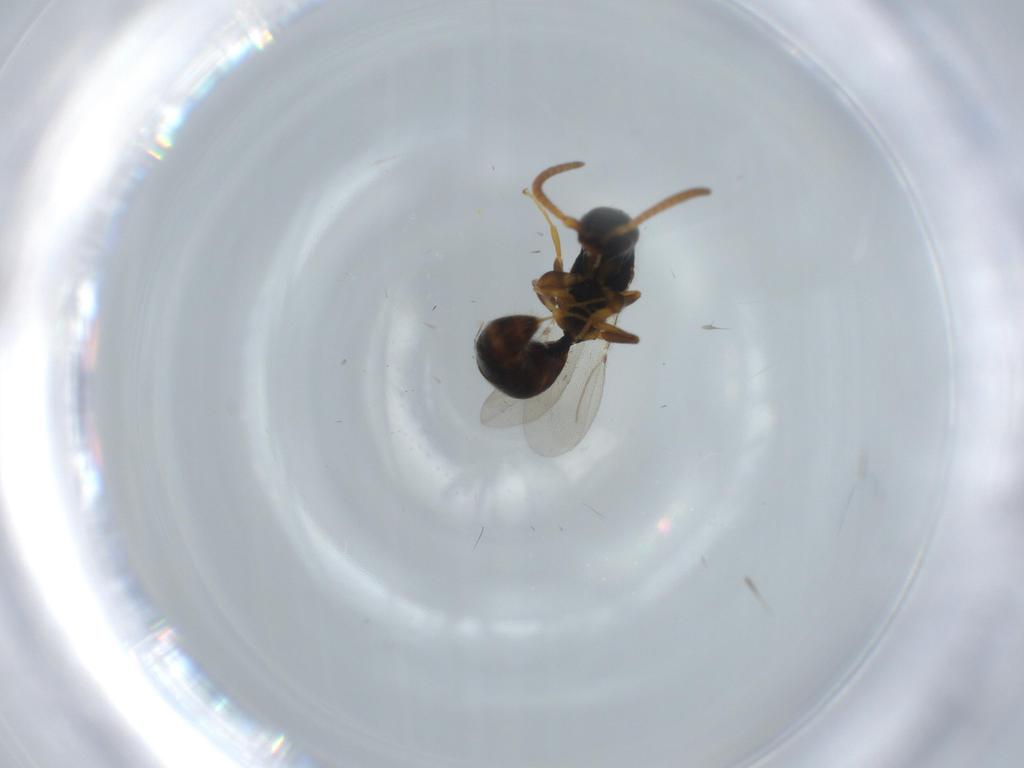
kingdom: Animalia
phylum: Arthropoda
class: Insecta
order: Hymenoptera
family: Bethylidae
